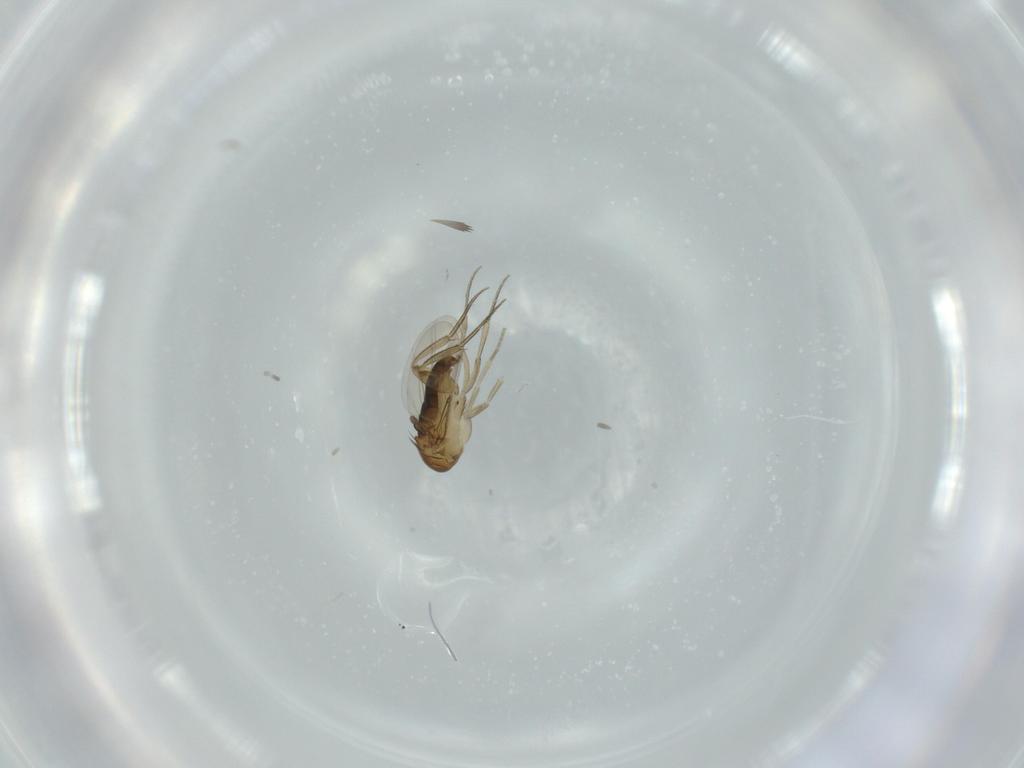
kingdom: Animalia
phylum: Arthropoda
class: Insecta
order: Diptera
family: Phoridae
